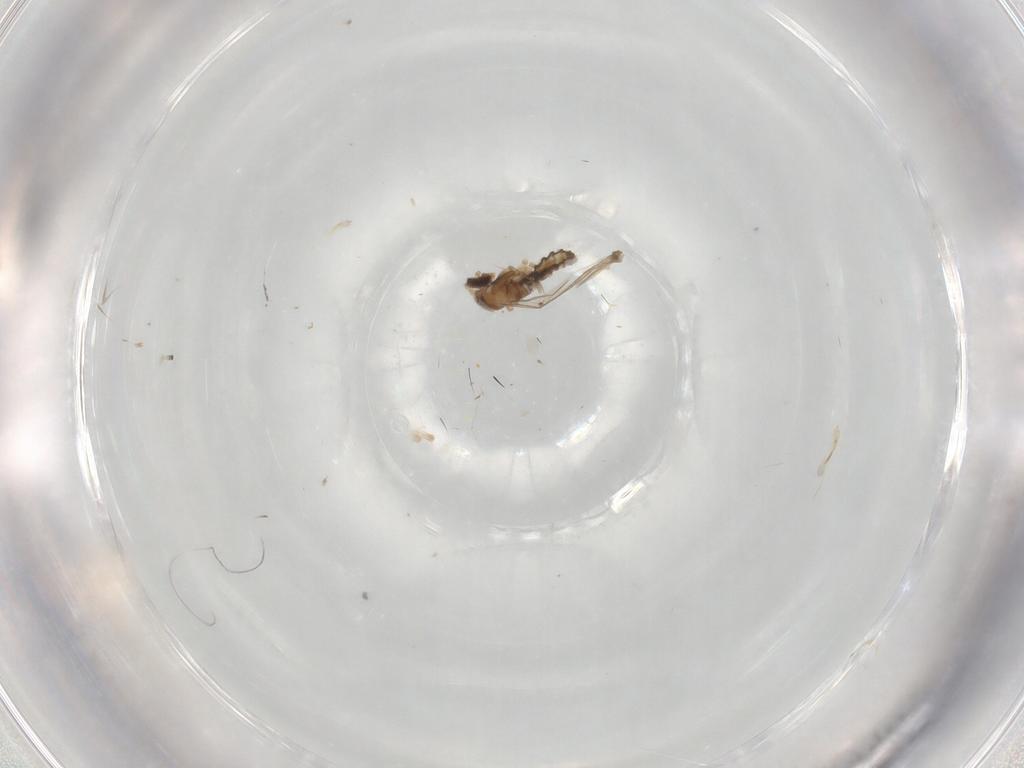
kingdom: Animalia
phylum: Arthropoda
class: Insecta
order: Diptera
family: Cecidomyiidae
